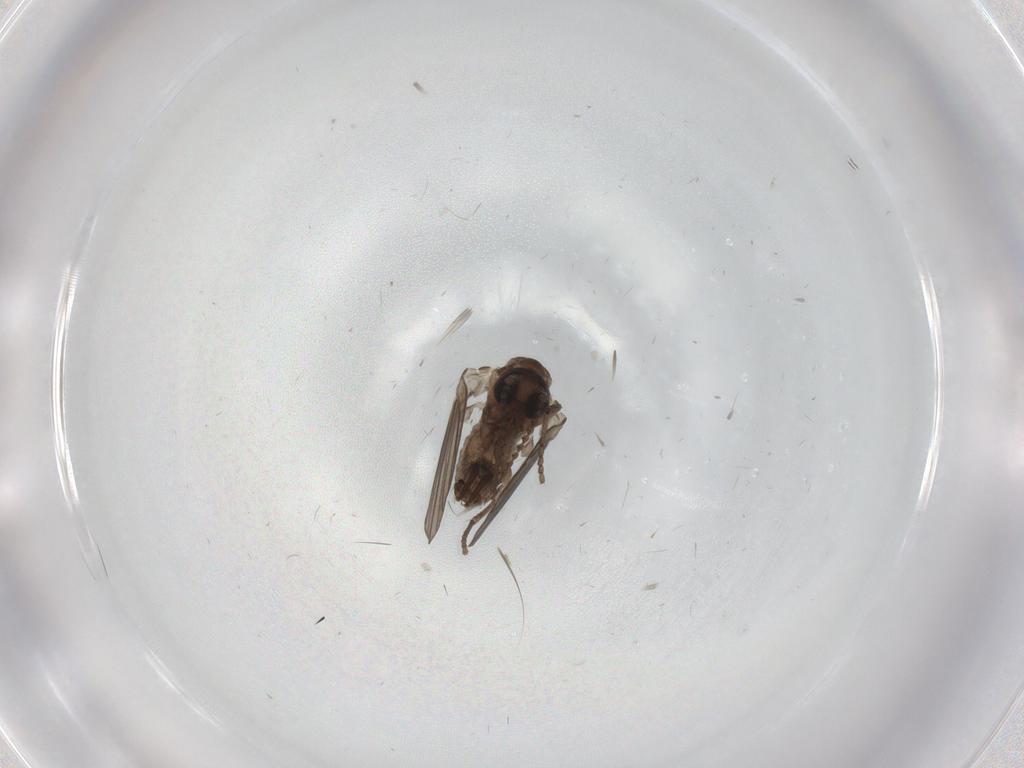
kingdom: Animalia
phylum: Arthropoda
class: Insecta
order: Diptera
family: Psychodidae
